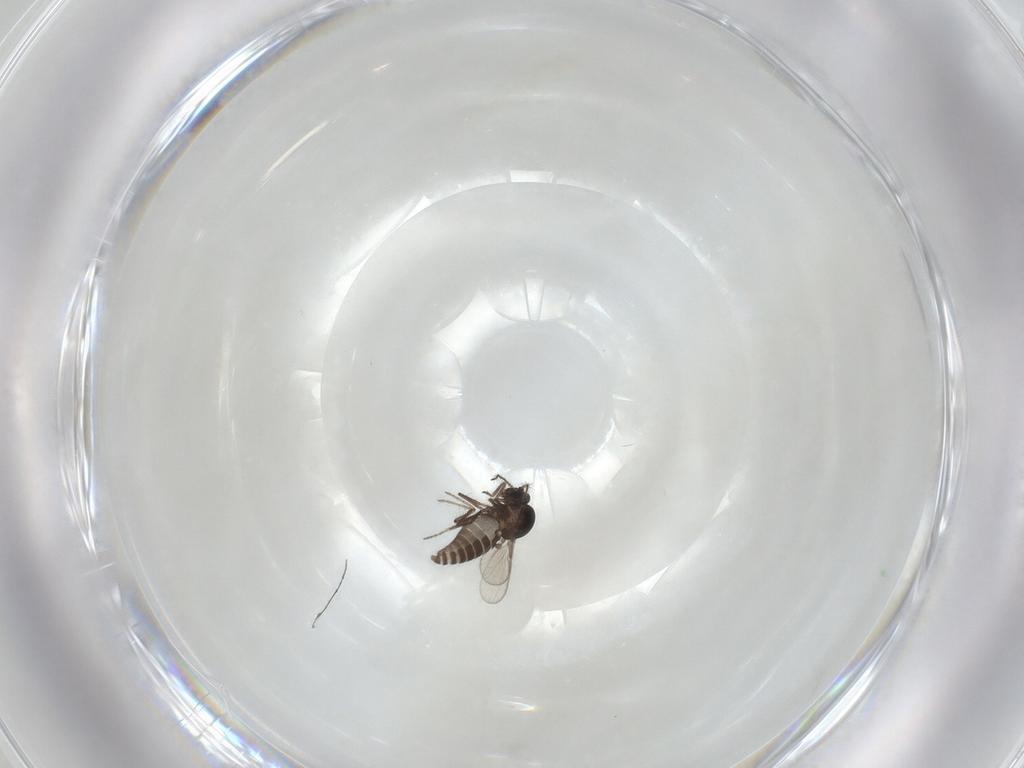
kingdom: Animalia
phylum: Arthropoda
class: Insecta
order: Diptera
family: Ceratopogonidae
